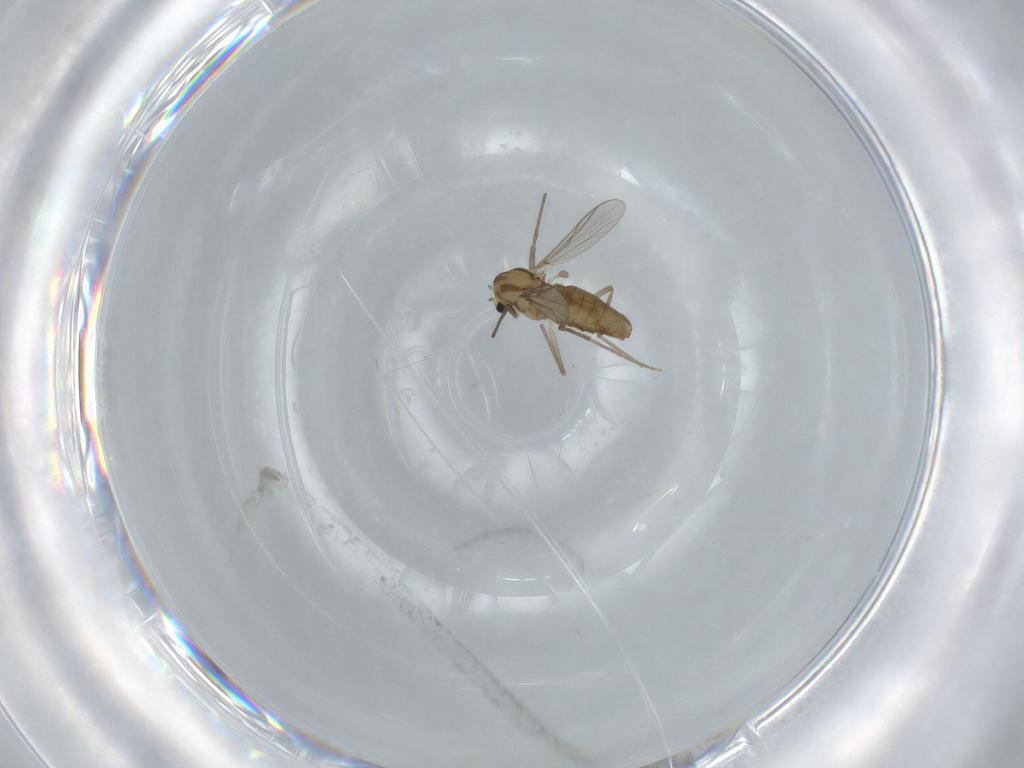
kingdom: Animalia
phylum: Arthropoda
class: Insecta
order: Diptera
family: Chironomidae
